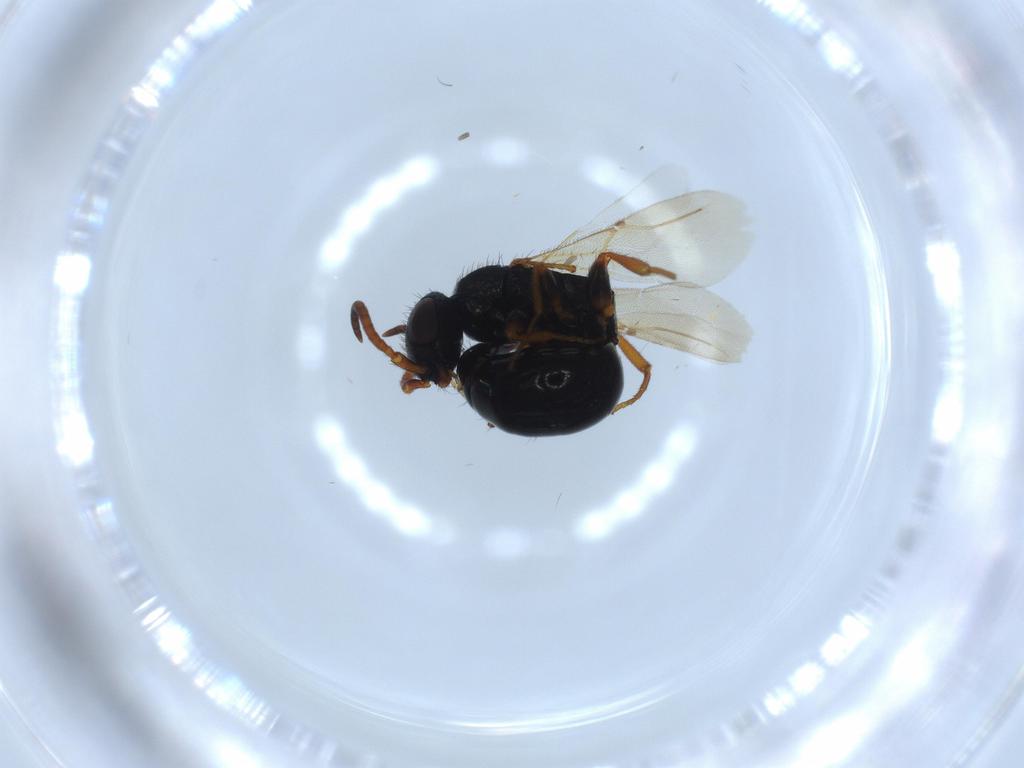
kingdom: Animalia
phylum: Arthropoda
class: Insecta
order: Hymenoptera
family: Bethylidae
